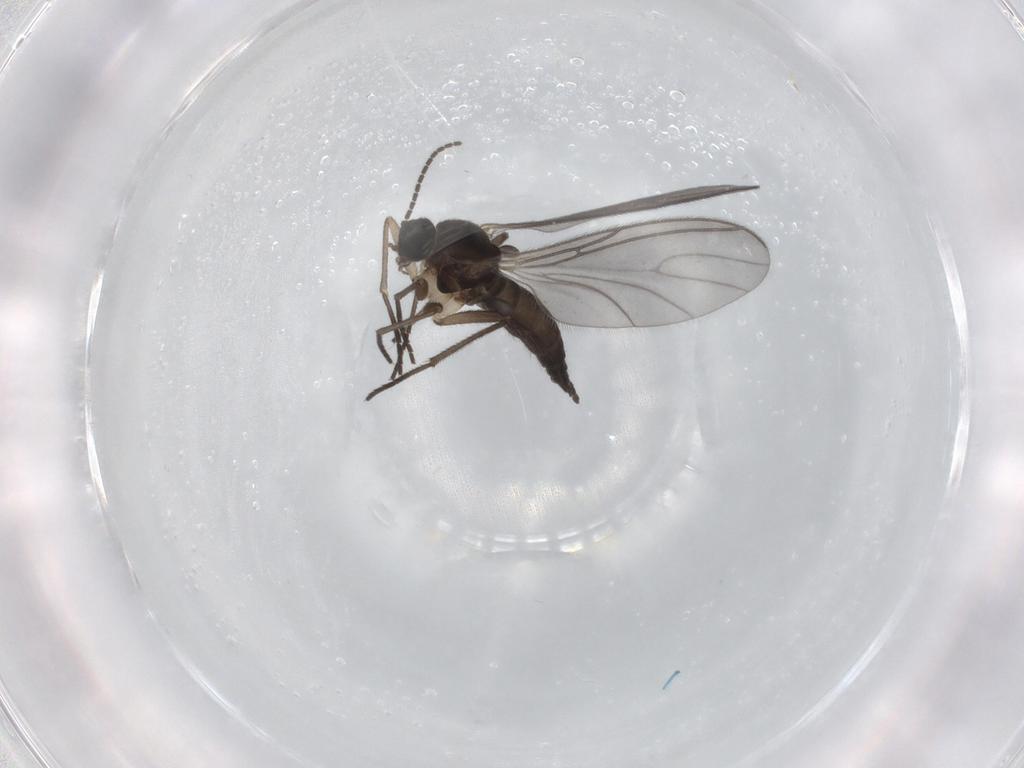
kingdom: Animalia
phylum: Arthropoda
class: Insecta
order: Diptera
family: Sciaridae
